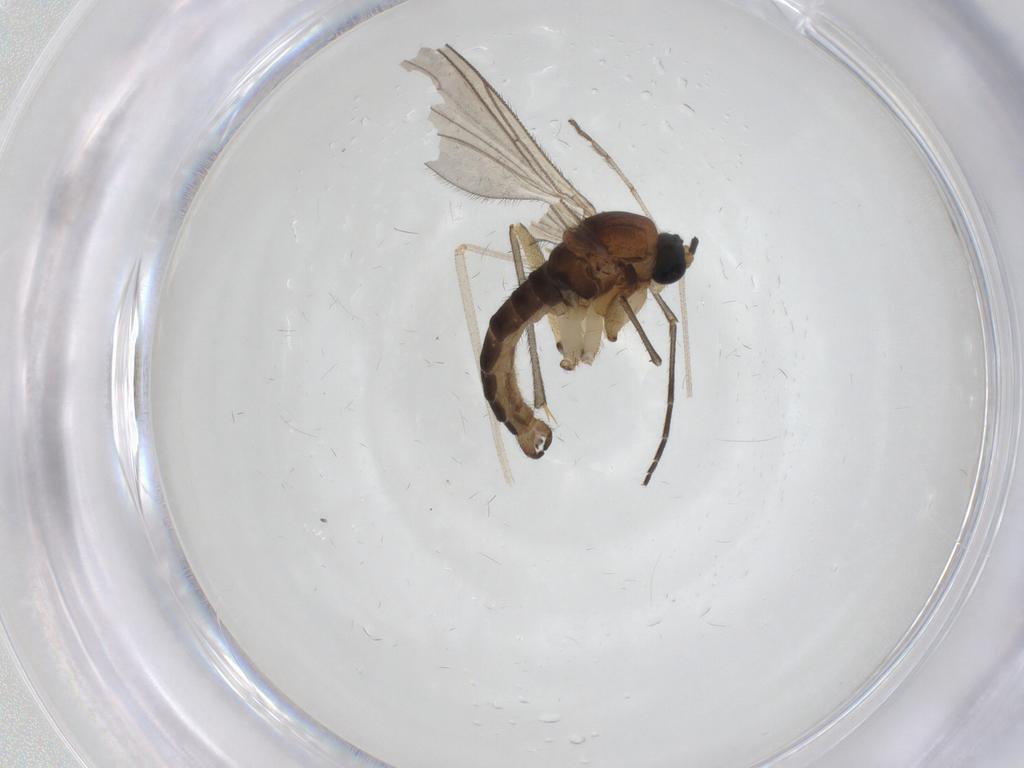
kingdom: Animalia
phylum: Arthropoda
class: Insecta
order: Diptera
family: Sciaridae
